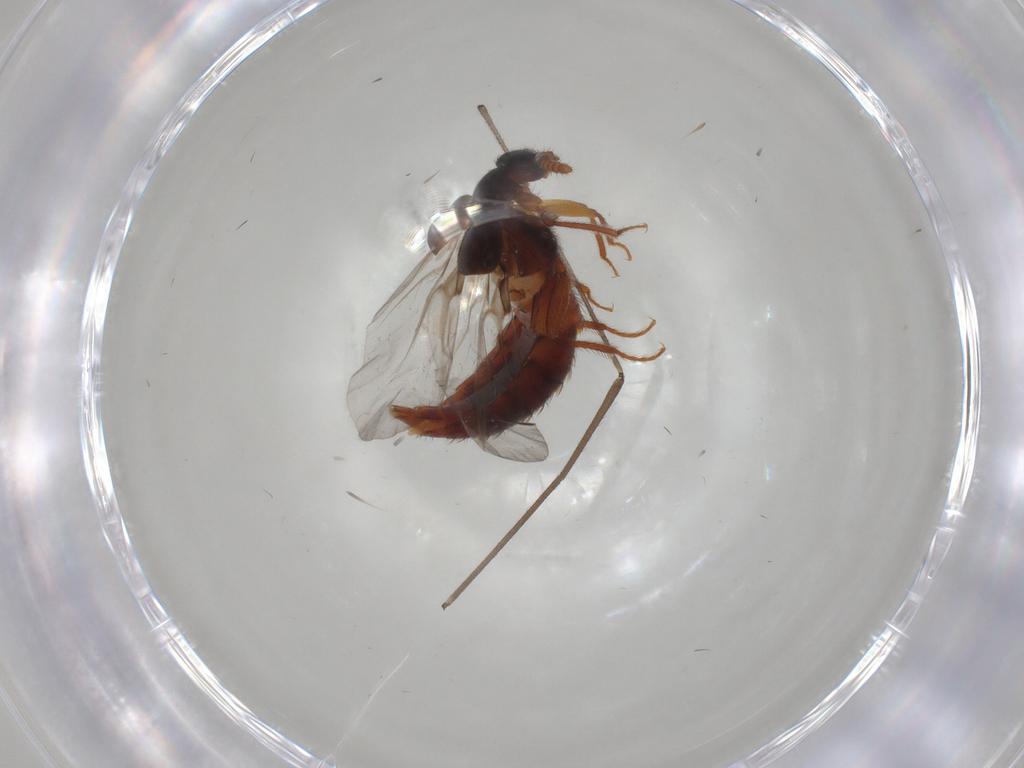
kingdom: Animalia
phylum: Arthropoda
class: Insecta
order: Coleoptera
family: Staphylinidae
